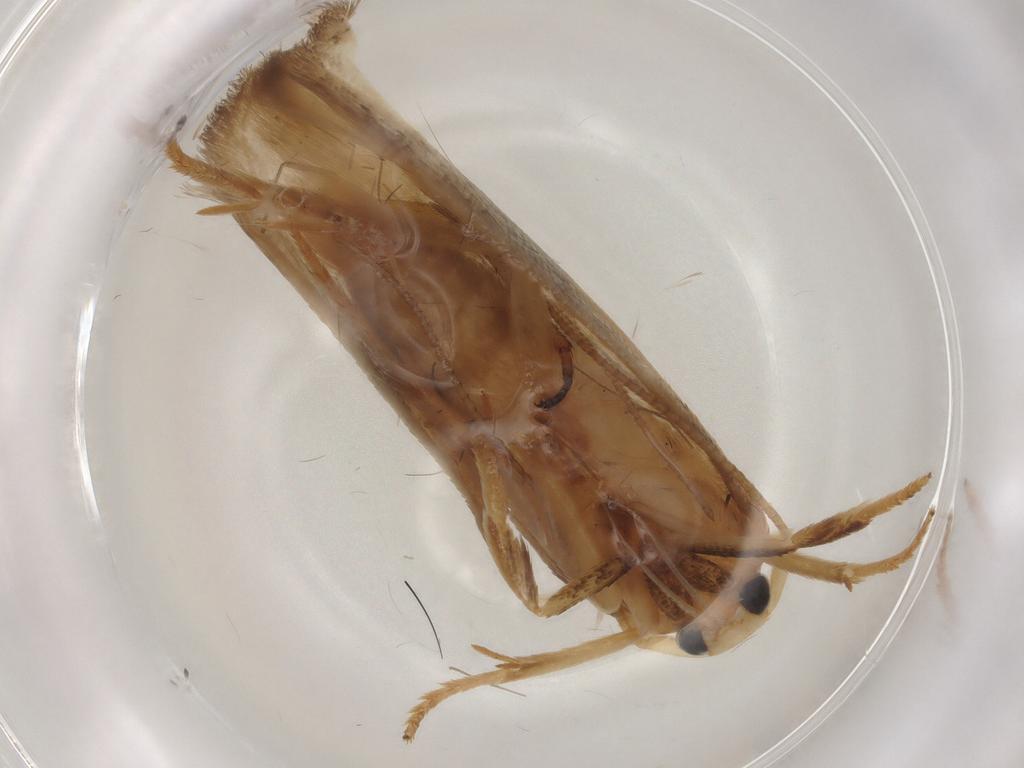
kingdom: Animalia
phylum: Arthropoda
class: Insecta
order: Lepidoptera
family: Geometridae
